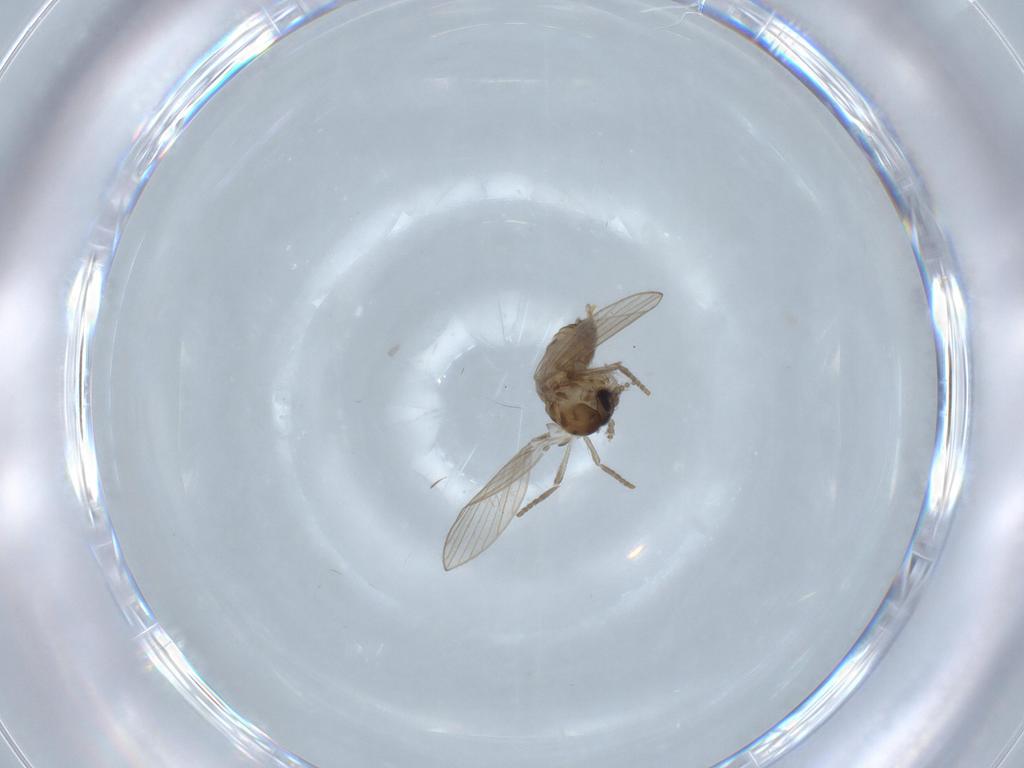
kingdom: Animalia
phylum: Arthropoda
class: Insecta
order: Diptera
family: Psychodidae
